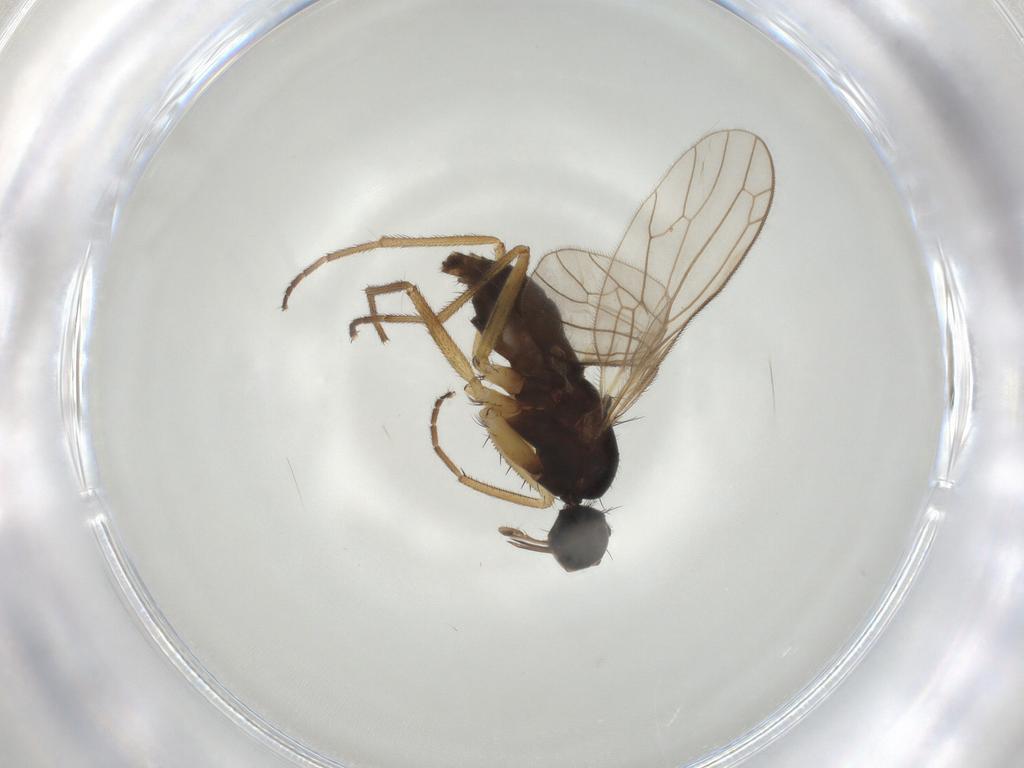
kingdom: Animalia
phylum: Arthropoda
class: Insecta
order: Diptera
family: Empididae
